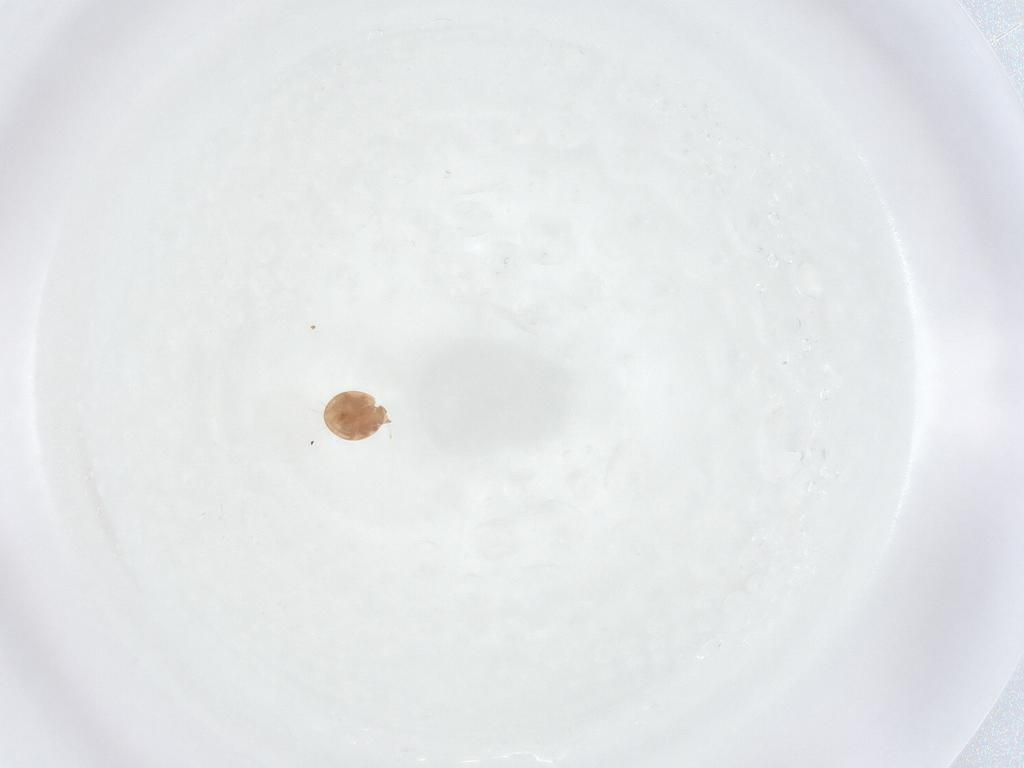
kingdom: Animalia
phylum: Arthropoda
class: Arachnida
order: Mesostigmata
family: Trematuridae
